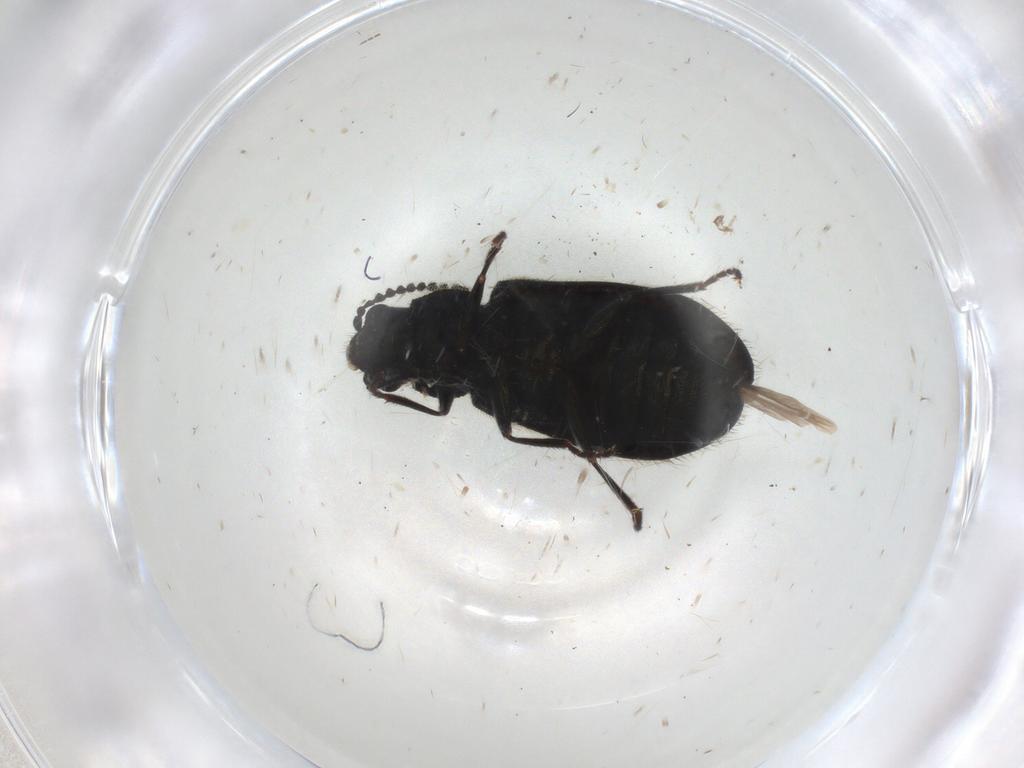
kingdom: Animalia
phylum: Arthropoda
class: Insecta
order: Coleoptera
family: Melyridae
